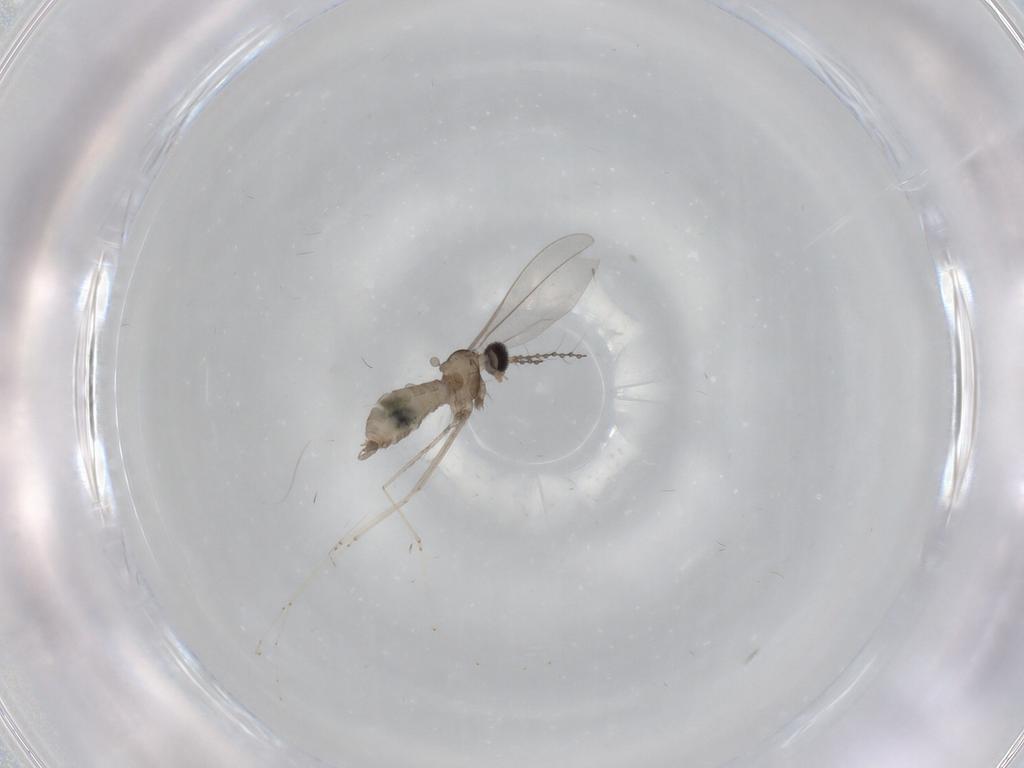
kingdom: Animalia
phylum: Arthropoda
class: Insecta
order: Diptera
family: Cecidomyiidae
